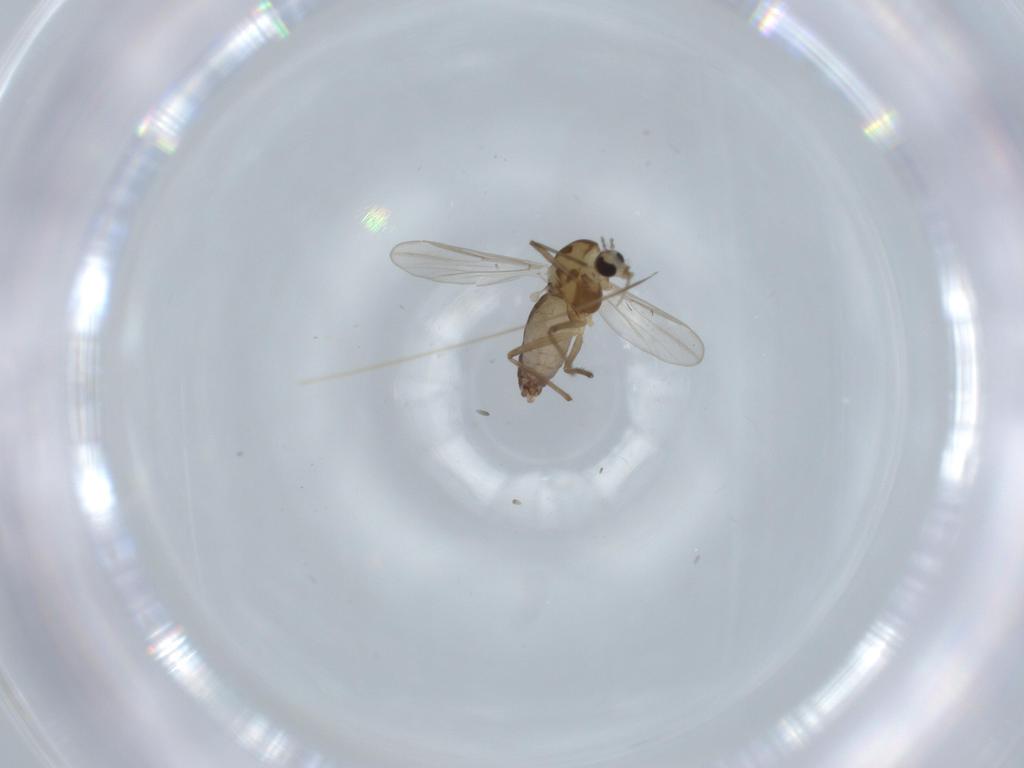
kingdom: Animalia
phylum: Arthropoda
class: Insecta
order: Diptera
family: Chironomidae
